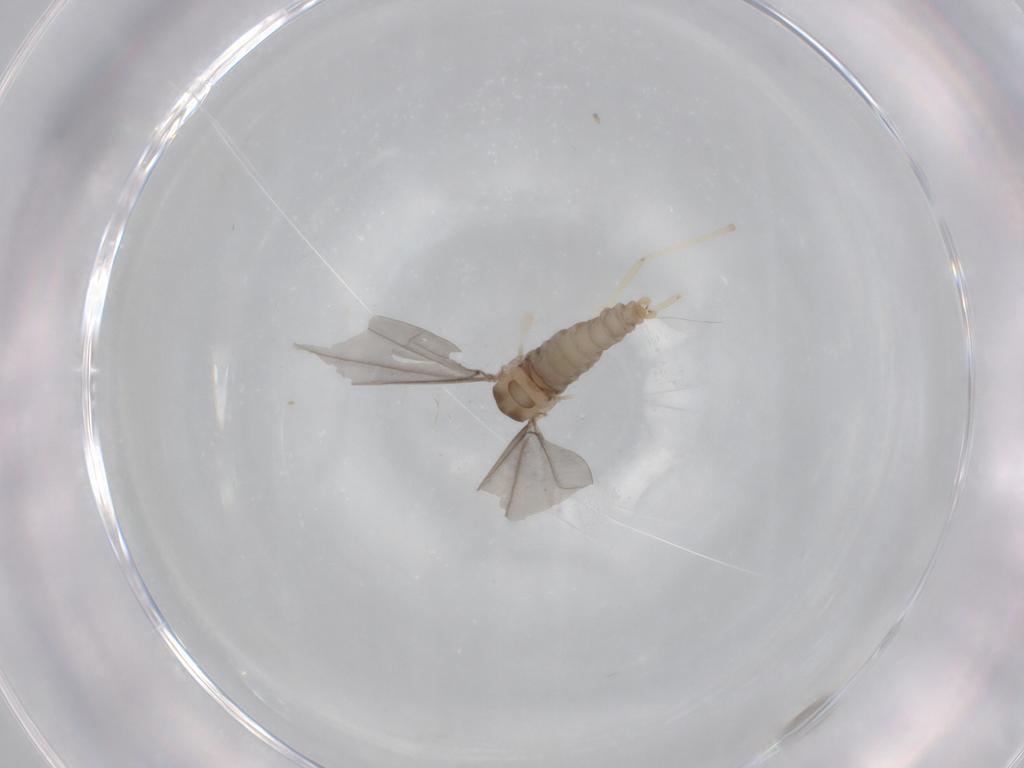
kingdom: Animalia
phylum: Arthropoda
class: Insecta
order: Diptera
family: Cecidomyiidae
